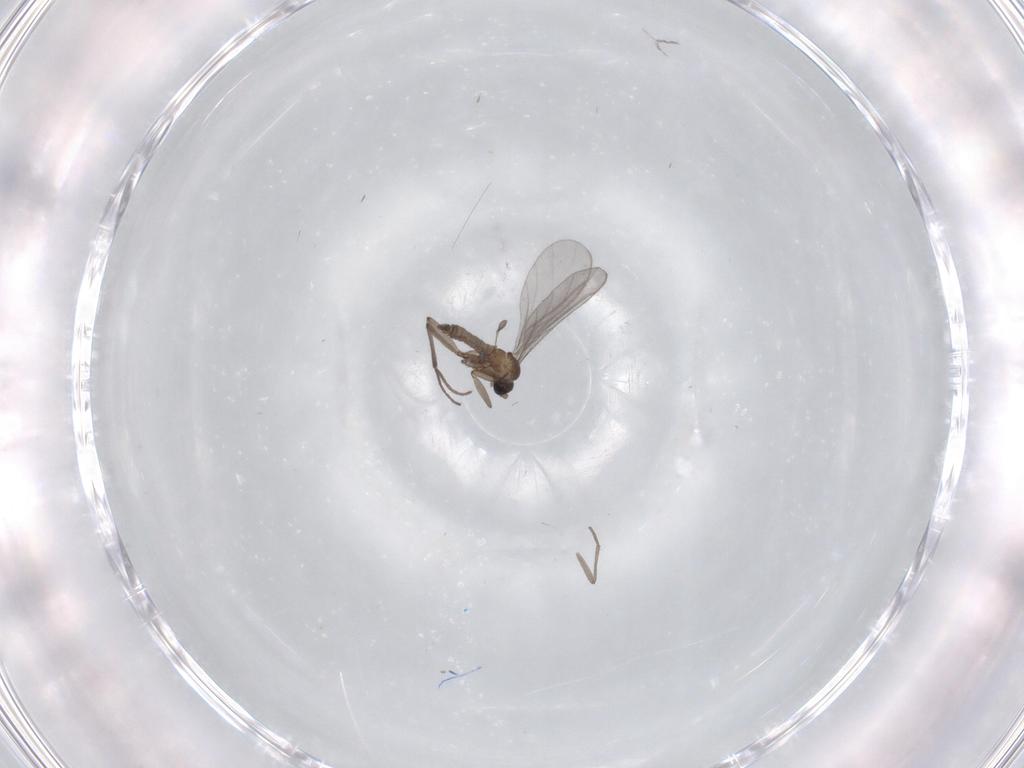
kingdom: Animalia
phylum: Arthropoda
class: Insecta
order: Diptera
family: Sciaridae
